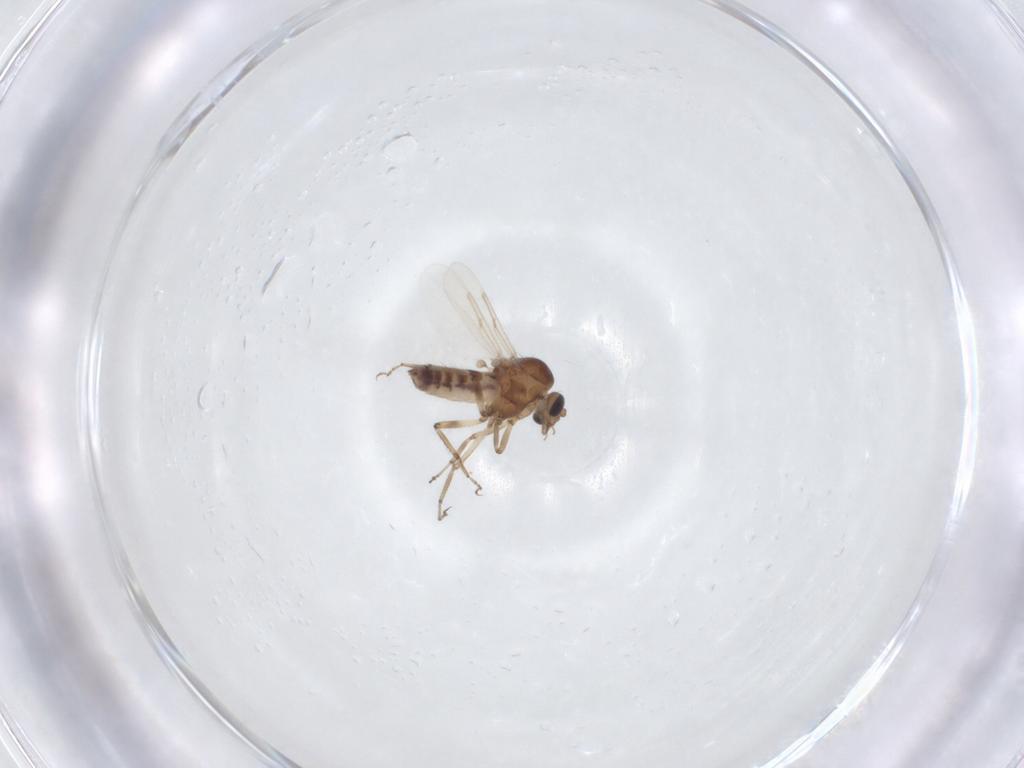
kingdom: Animalia
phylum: Arthropoda
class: Insecta
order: Diptera
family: Ceratopogonidae
